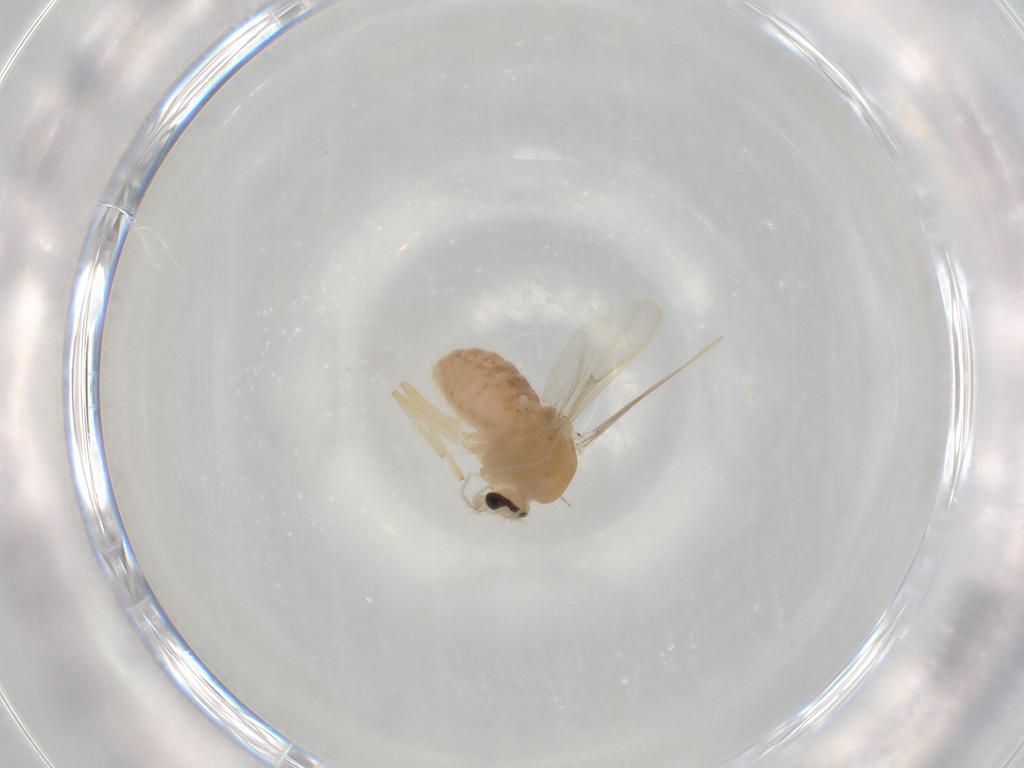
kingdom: Animalia
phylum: Arthropoda
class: Insecta
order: Diptera
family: Chironomidae
